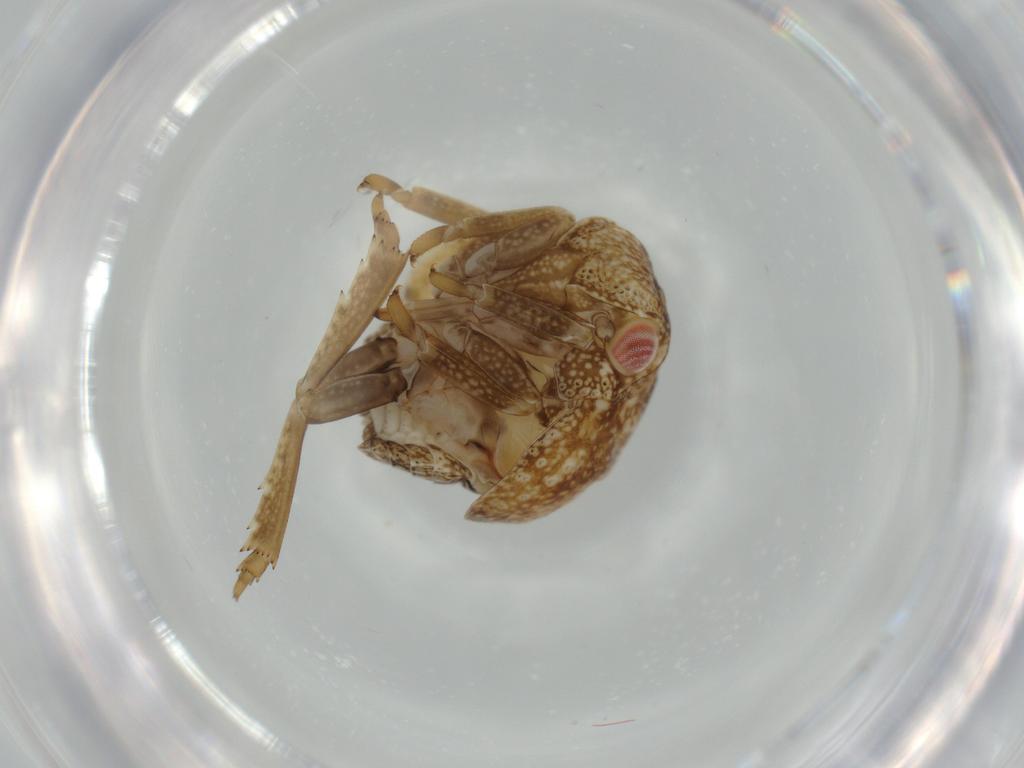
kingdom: Animalia
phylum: Arthropoda
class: Insecta
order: Hemiptera
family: Acanaloniidae
